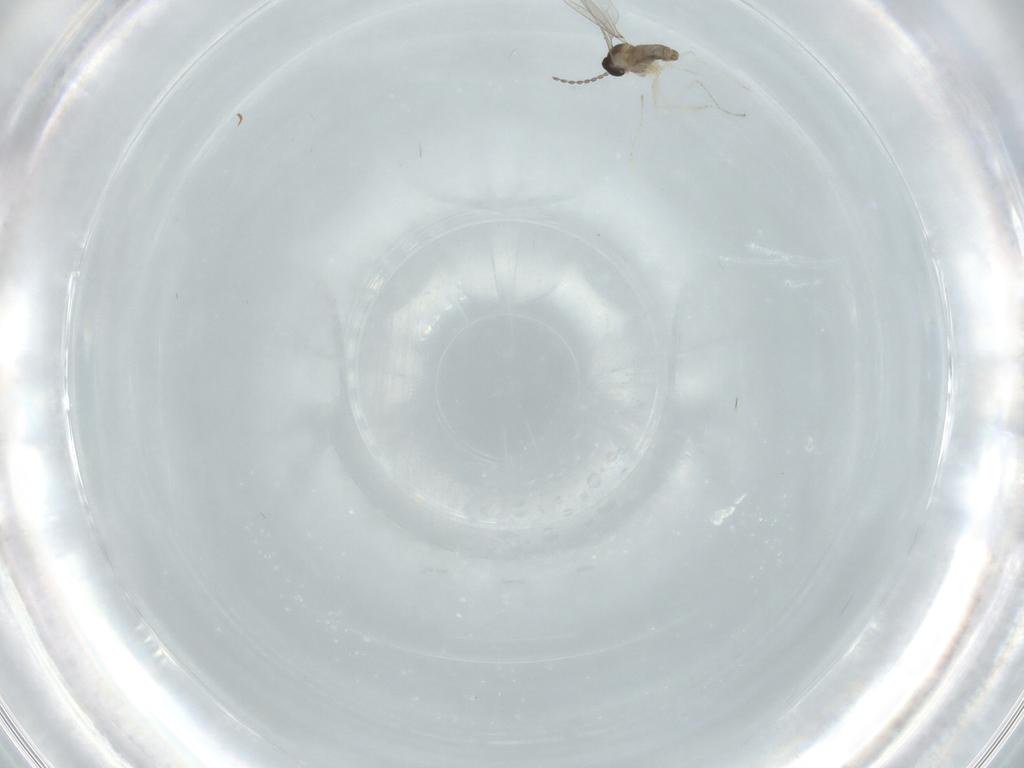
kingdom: Animalia
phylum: Arthropoda
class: Insecta
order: Diptera
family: Cecidomyiidae
